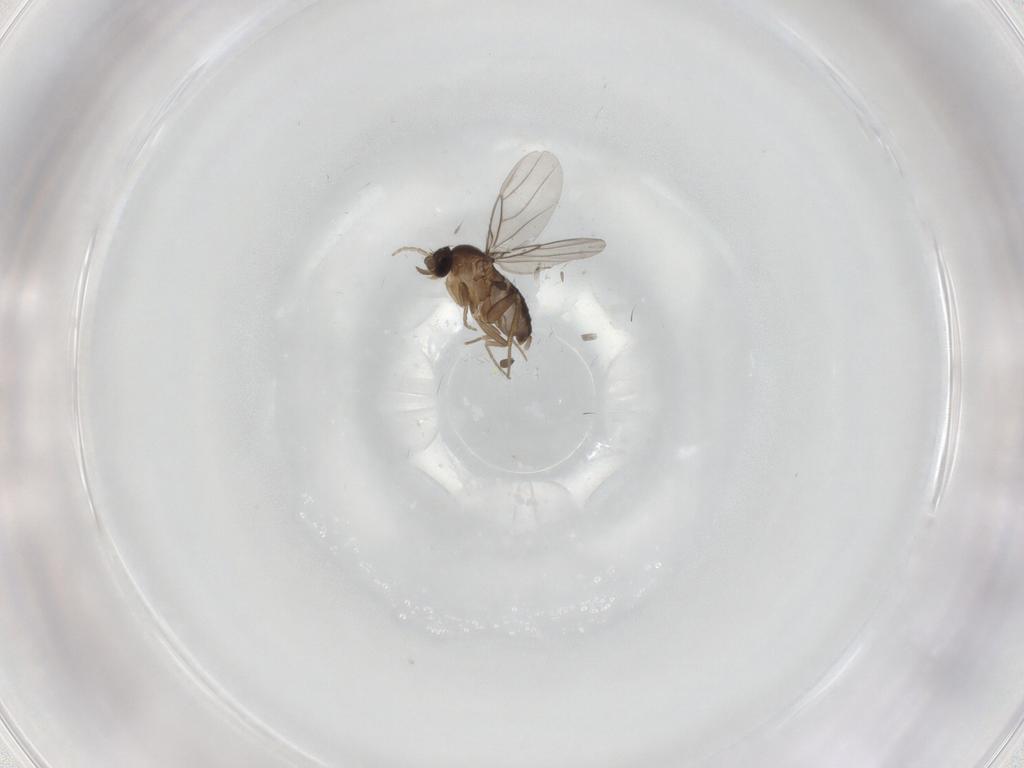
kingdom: Animalia
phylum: Arthropoda
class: Insecta
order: Diptera
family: Phoridae
